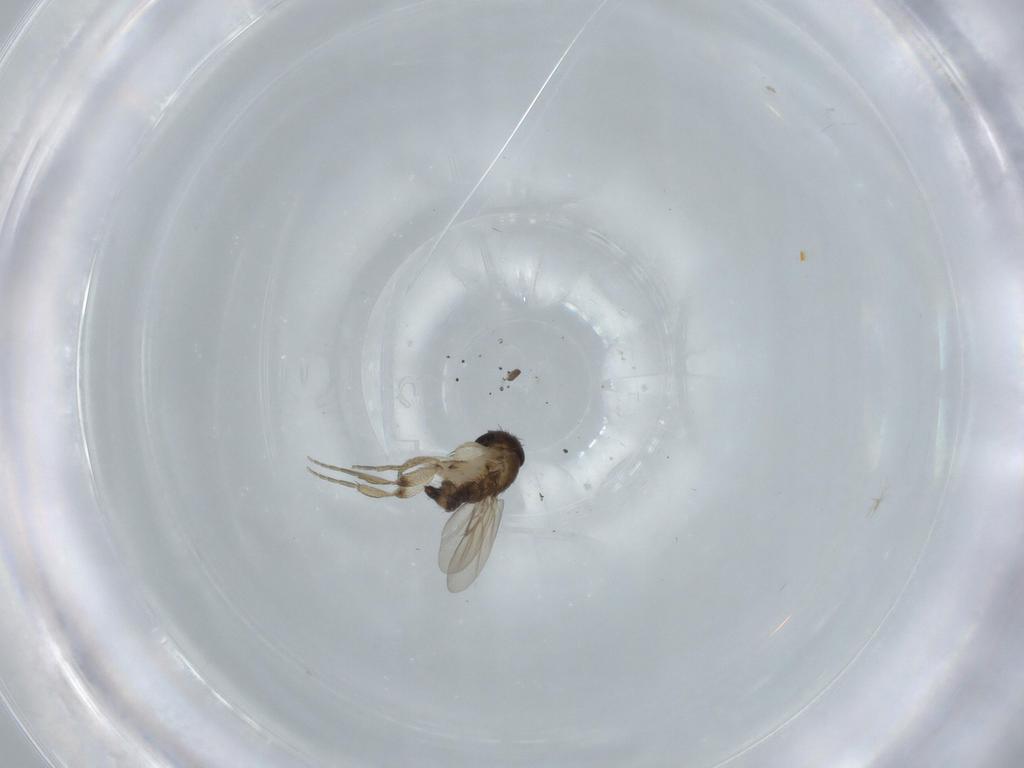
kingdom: Animalia
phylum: Arthropoda
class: Insecta
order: Diptera
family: Phoridae
